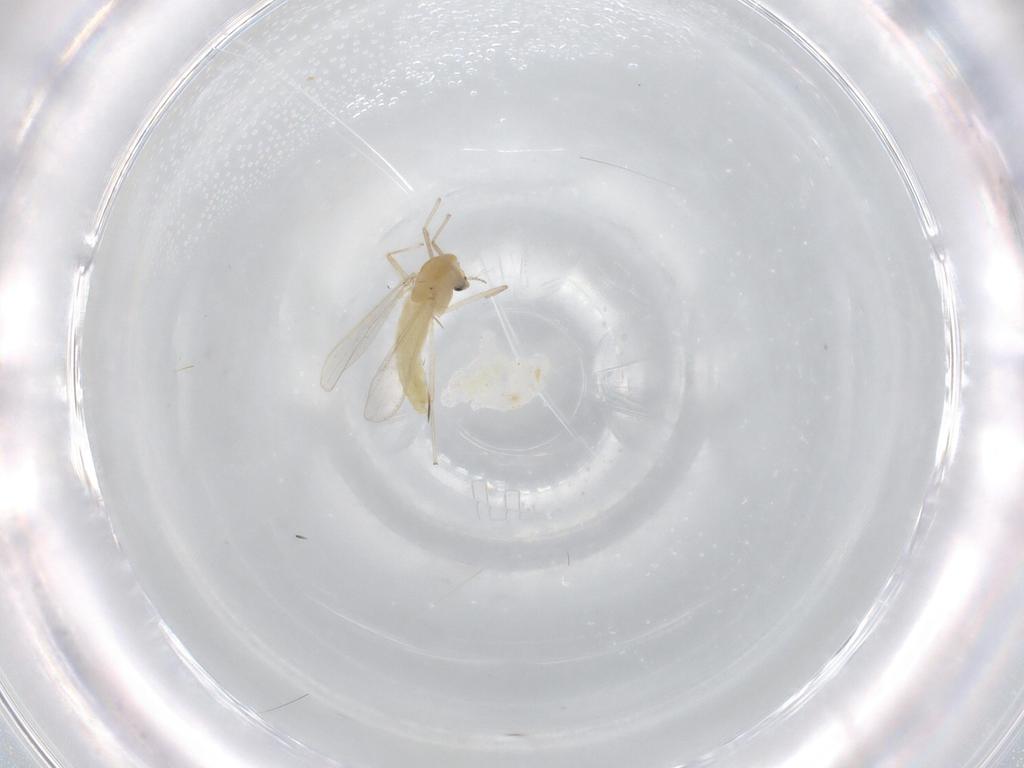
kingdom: Animalia
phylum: Arthropoda
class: Insecta
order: Diptera
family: Chironomidae
